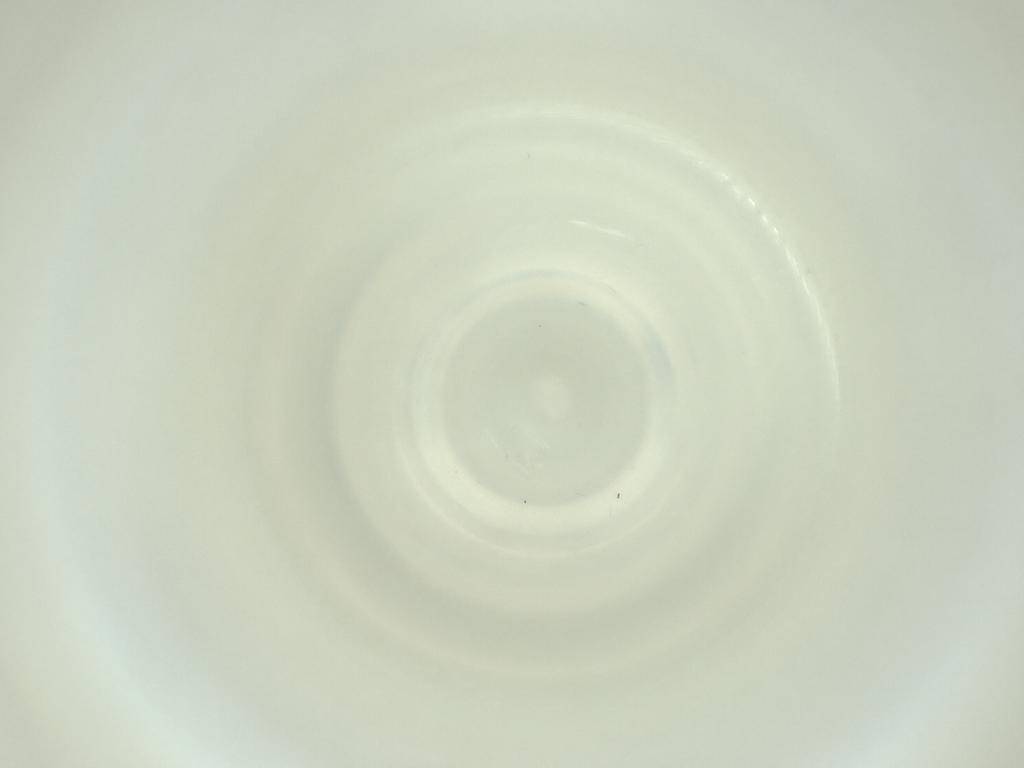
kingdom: Animalia
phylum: Arthropoda
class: Insecta
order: Diptera
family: Cecidomyiidae
